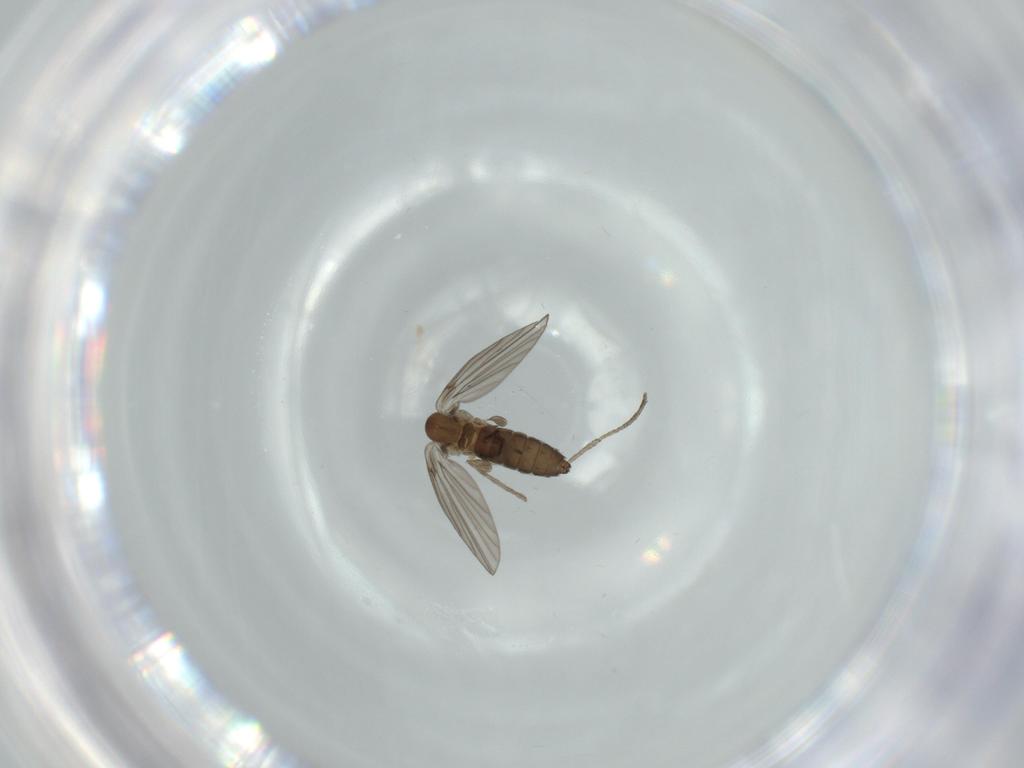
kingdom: Animalia
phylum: Arthropoda
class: Insecta
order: Diptera
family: Psychodidae
